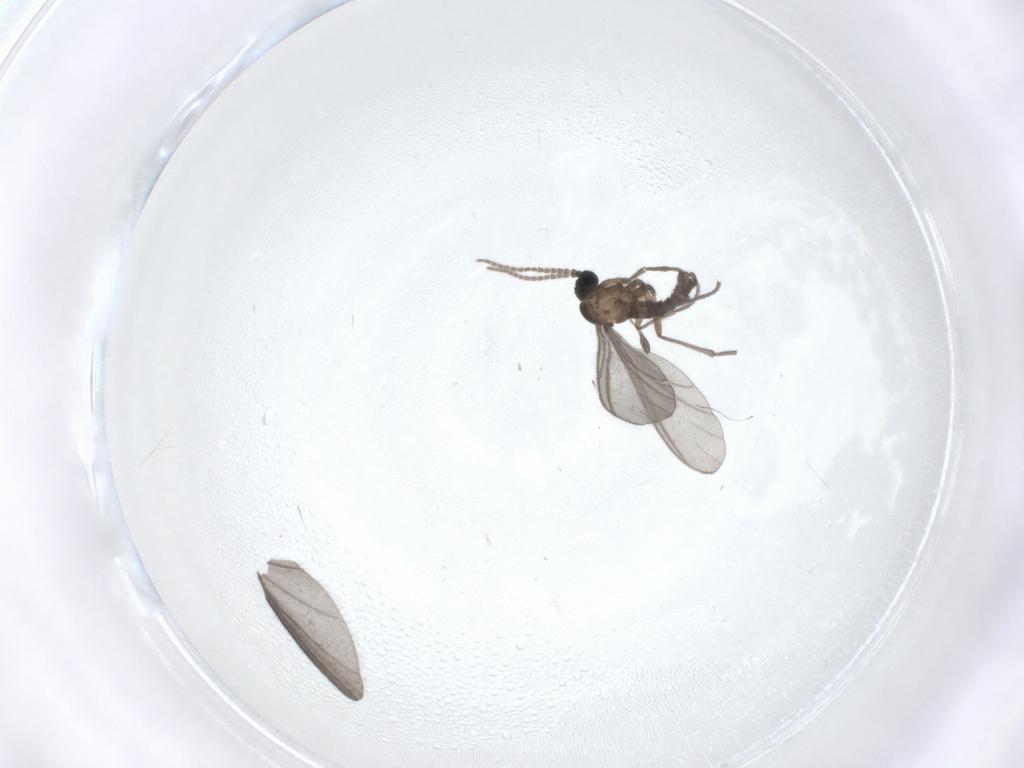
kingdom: Animalia
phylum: Arthropoda
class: Insecta
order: Diptera
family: Sciaridae
